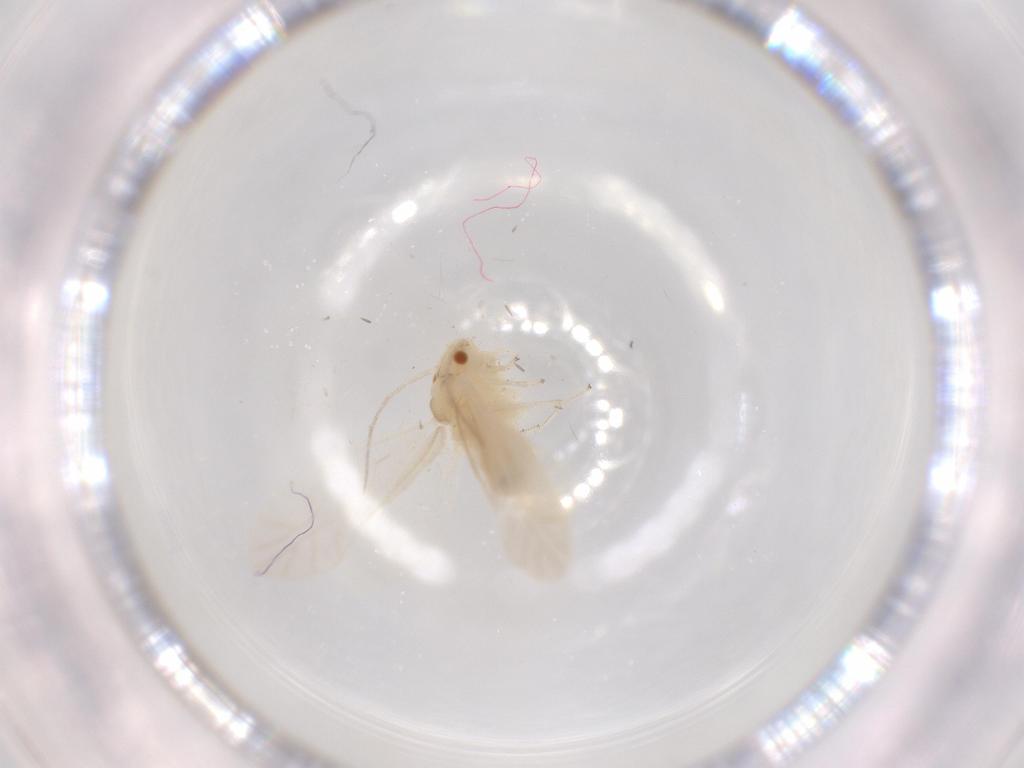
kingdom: Animalia
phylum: Arthropoda
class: Insecta
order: Psocodea
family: Caeciliusidae
